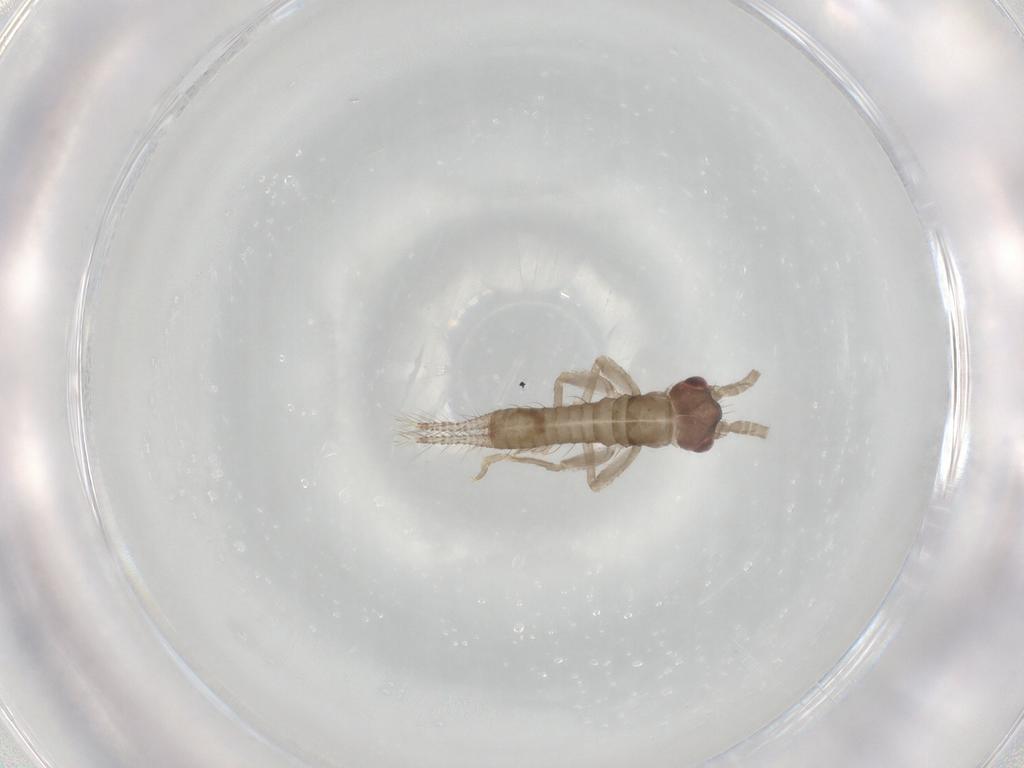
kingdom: Animalia
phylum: Arthropoda
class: Insecta
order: Orthoptera
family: Gryllidae
